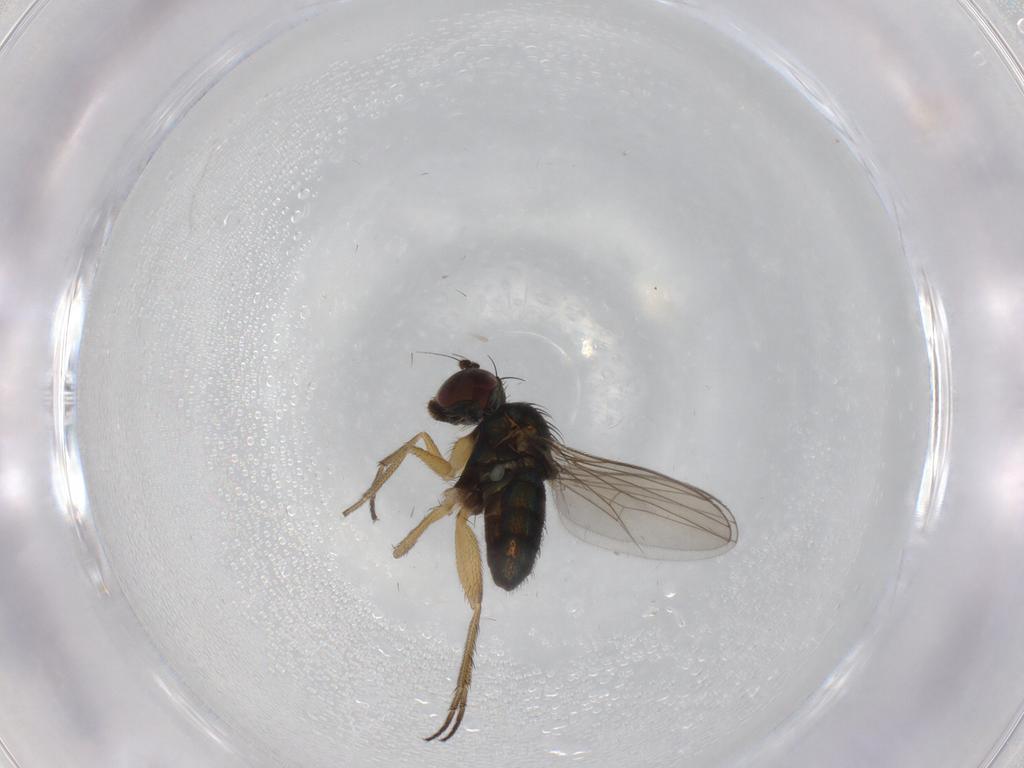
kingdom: Animalia
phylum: Arthropoda
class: Insecta
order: Diptera
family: Dolichopodidae
